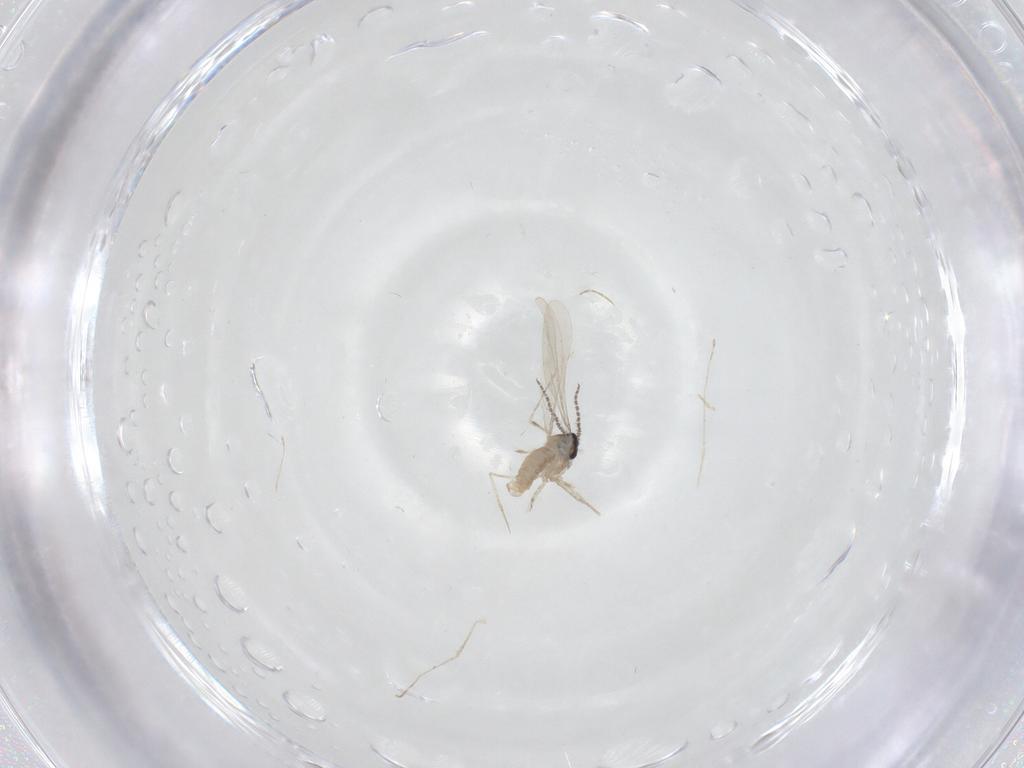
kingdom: Animalia
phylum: Arthropoda
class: Insecta
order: Diptera
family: Cecidomyiidae
